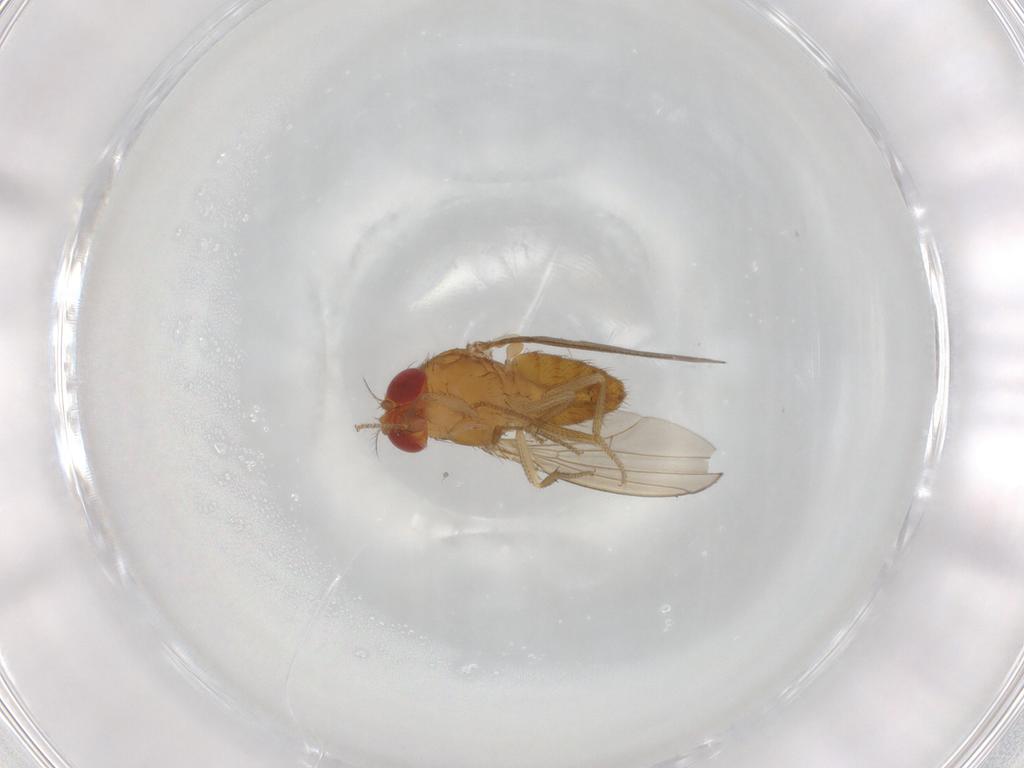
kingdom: Animalia
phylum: Arthropoda
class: Insecta
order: Diptera
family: Drosophilidae
